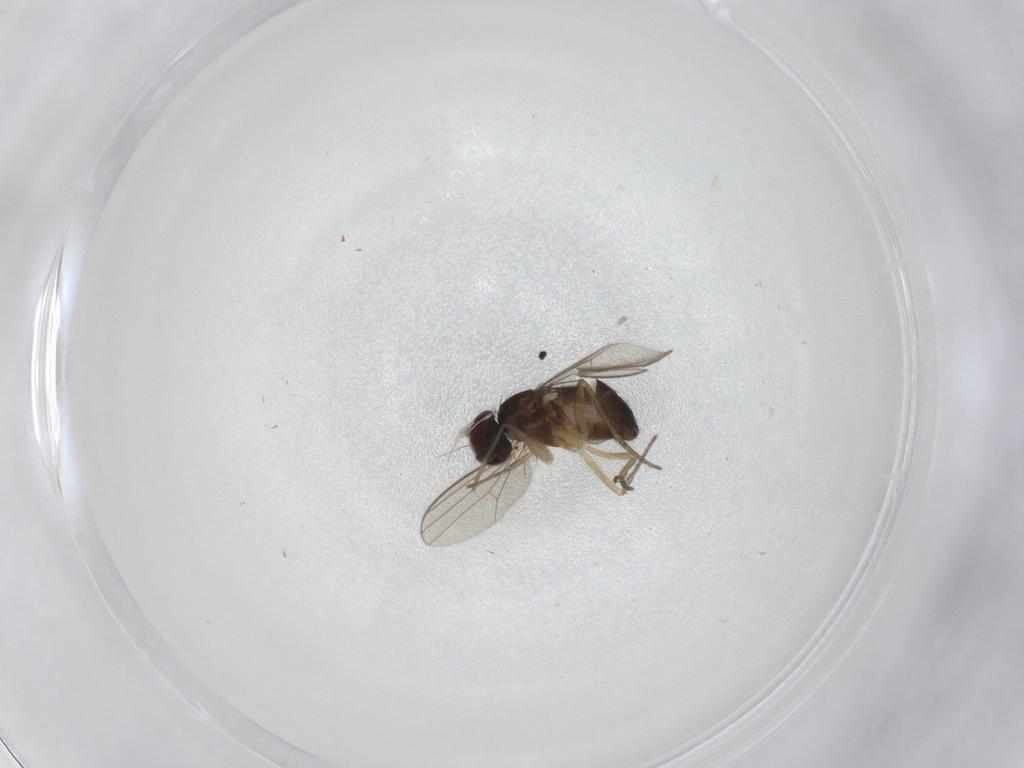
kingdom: Animalia
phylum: Arthropoda
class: Insecta
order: Diptera
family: Dolichopodidae
